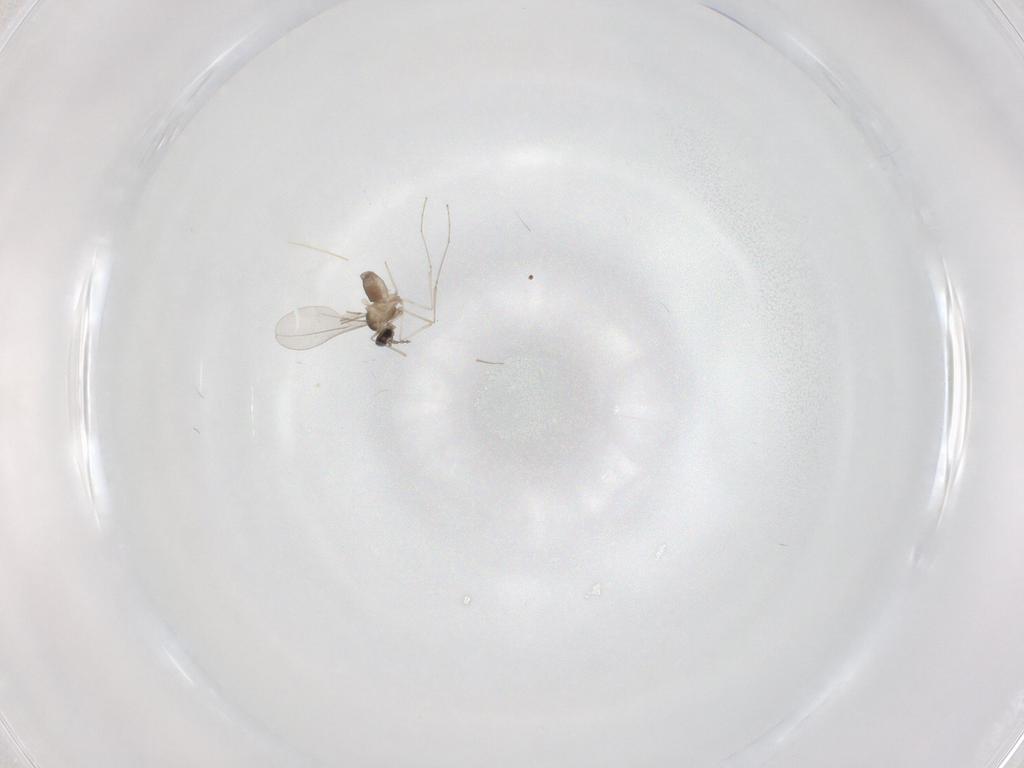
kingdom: Animalia
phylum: Arthropoda
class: Insecta
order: Diptera
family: Cecidomyiidae
